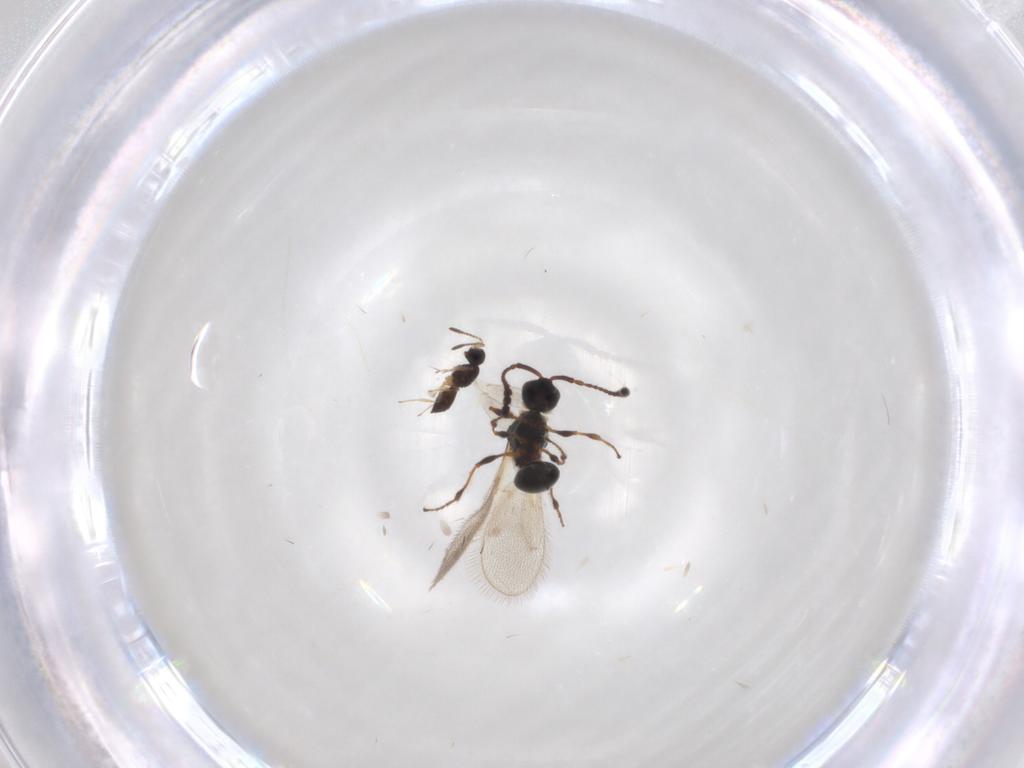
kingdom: Animalia
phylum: Arthropoda
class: Insecta
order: Hymenoptera
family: Diapriidae
